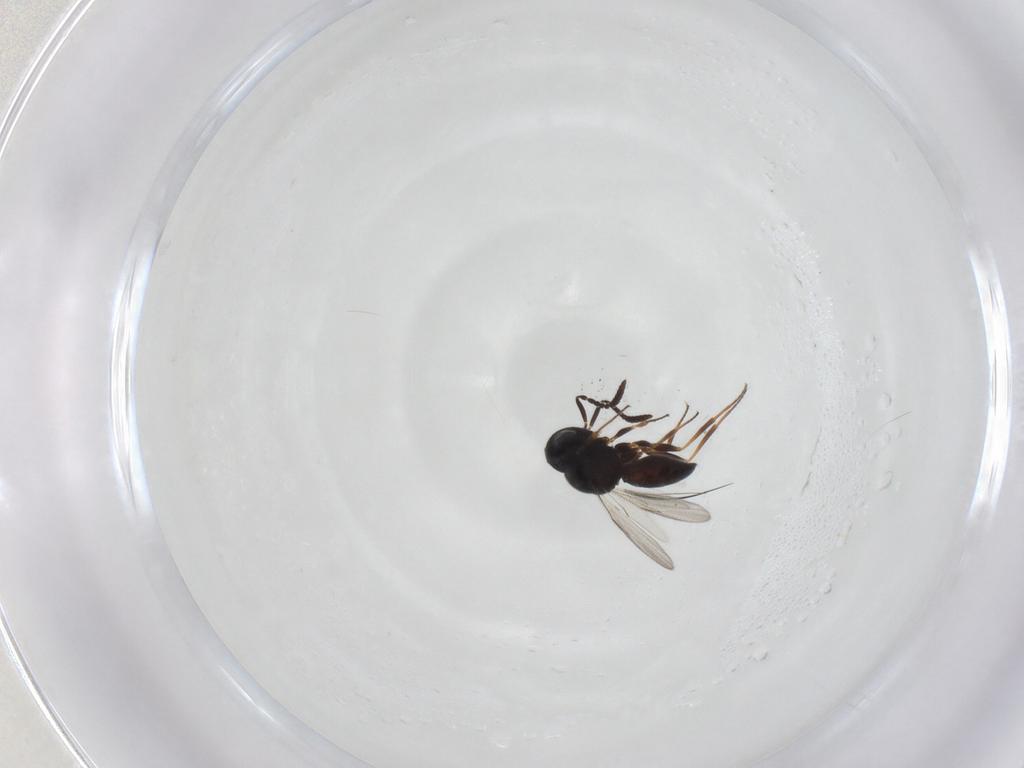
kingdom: Animalia
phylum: Arthropoda
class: Insecta
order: Hymenoptera
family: Scelionidae
